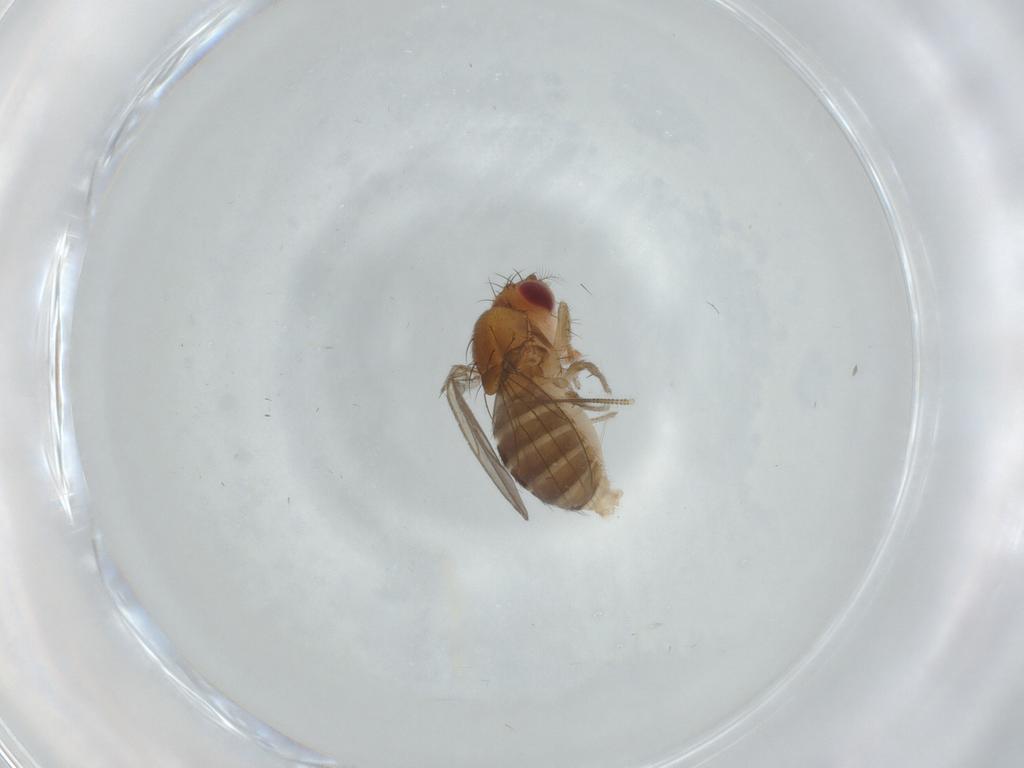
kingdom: Animalia
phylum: Arthropoda
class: Insecta
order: Diptera
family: Drosophilidae
